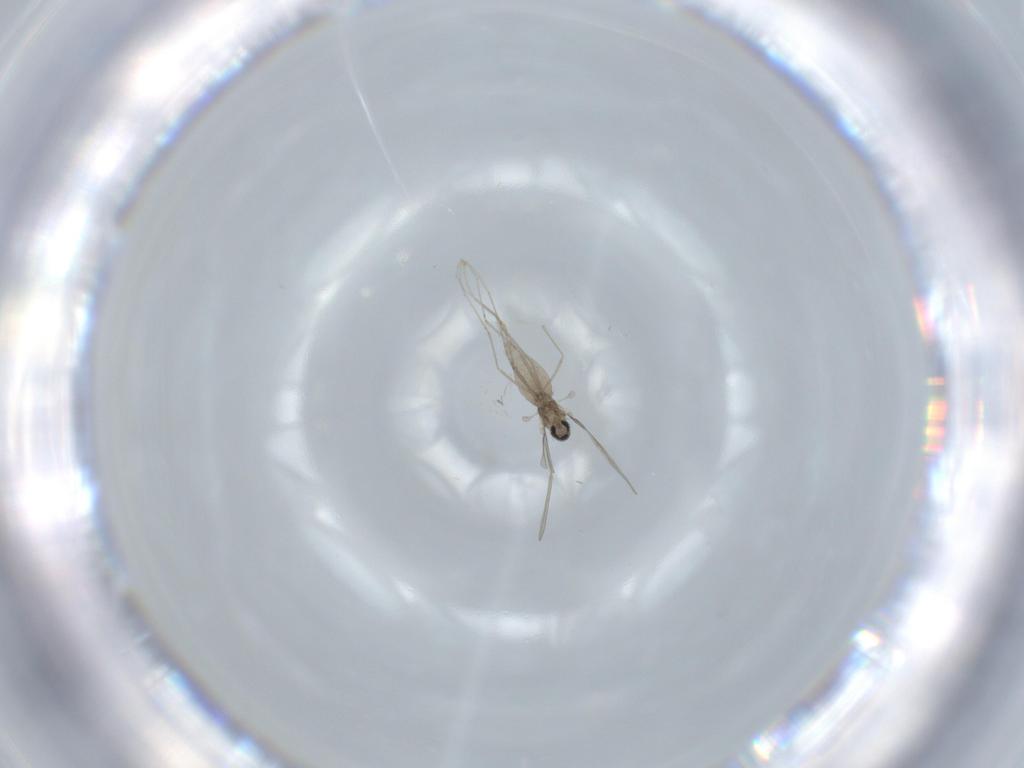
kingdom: Animalia
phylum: Arthropoda
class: Insecta
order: Diptera
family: Cecidomyiidae
